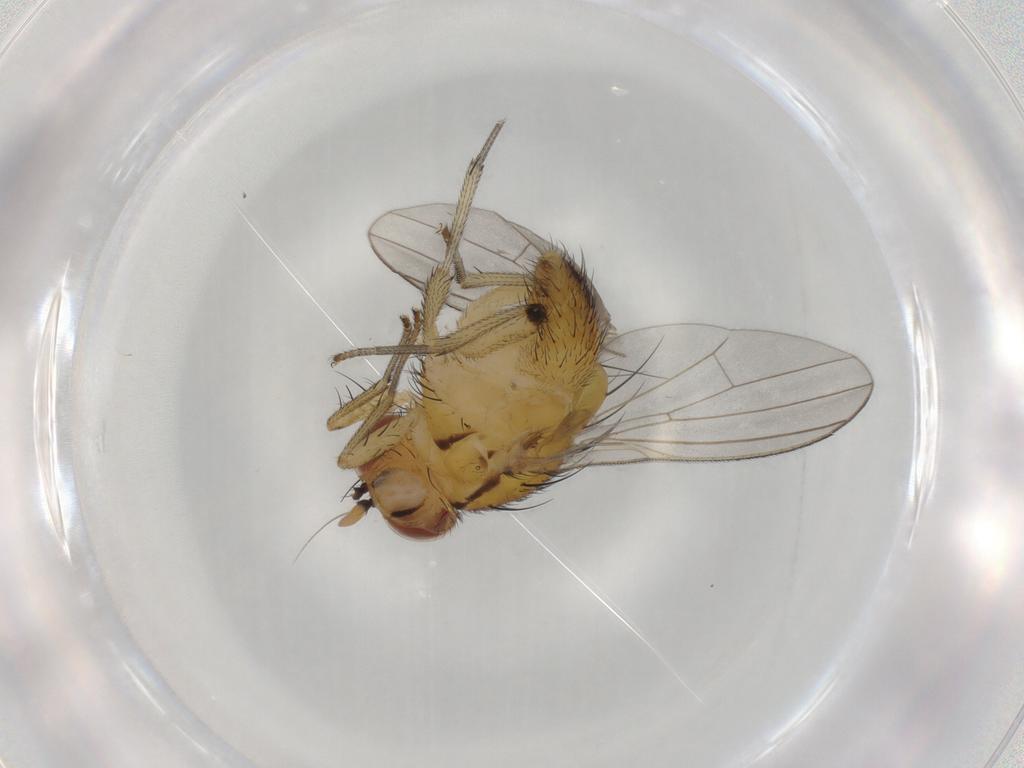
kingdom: Animalia
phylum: Arthropoda
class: Insecta
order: Diptera
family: Limoniidae
